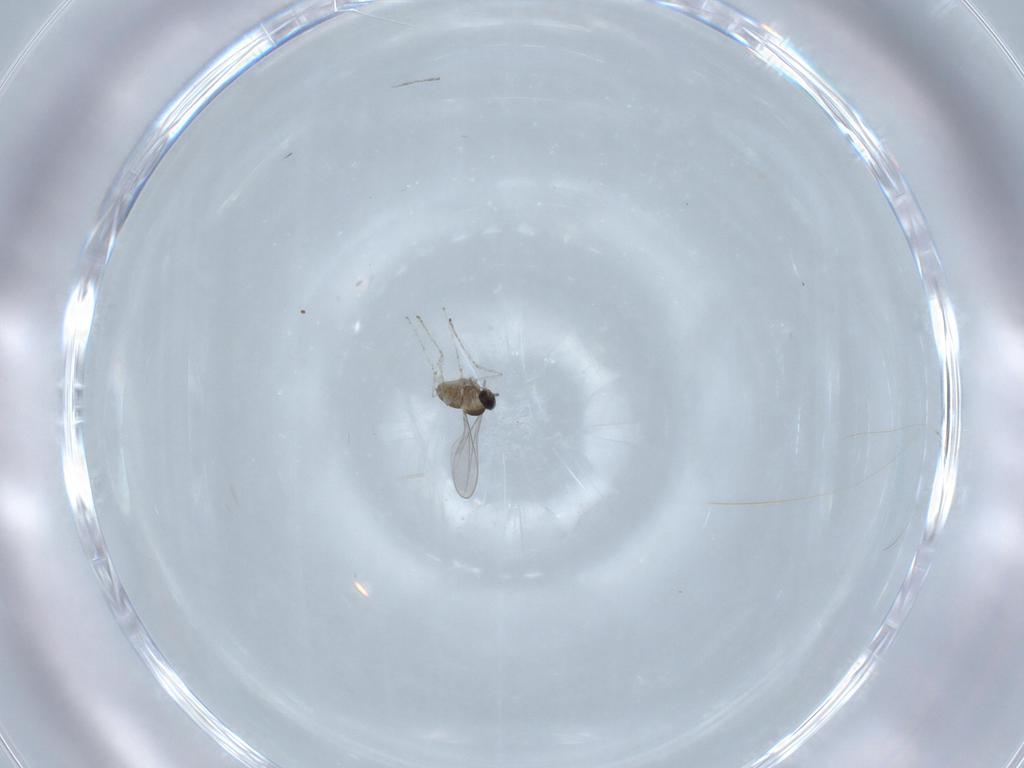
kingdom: Animalia
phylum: Arthropoda
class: Insecta
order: Diptera
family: Cecidomyiidae
